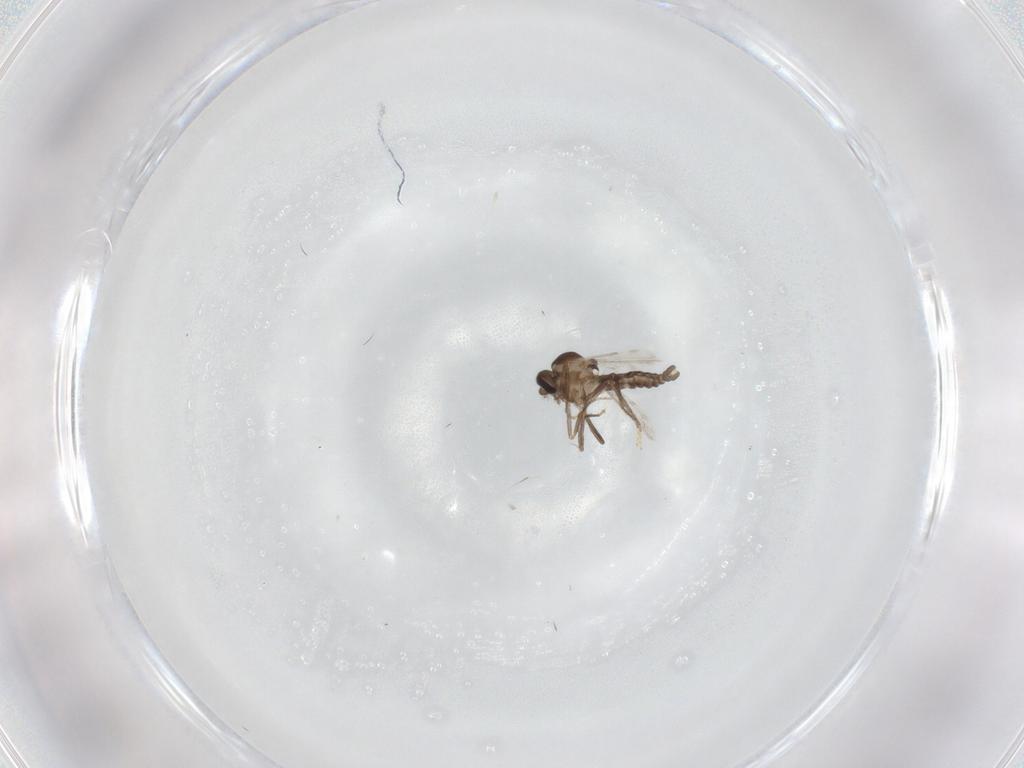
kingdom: Animalia
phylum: Arthropoda
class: Insecta
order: Diptera
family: Ceratopogonidae
